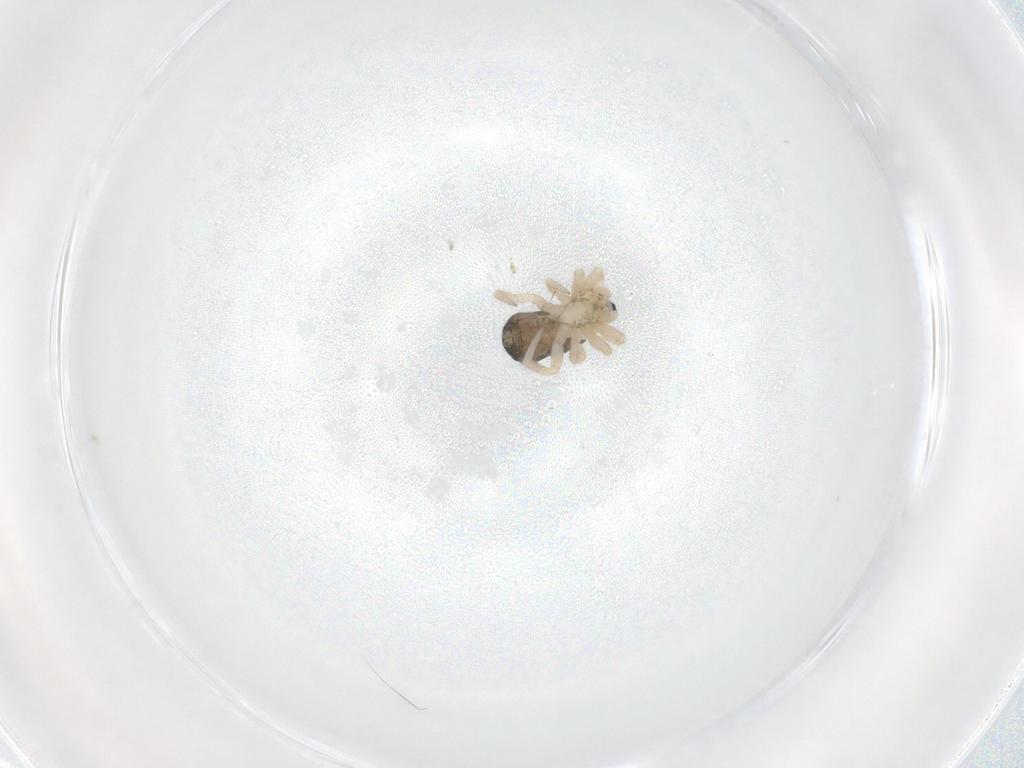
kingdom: Animalia
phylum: Arthropoda
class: Arachnida
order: Araneae
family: Theridiidae
